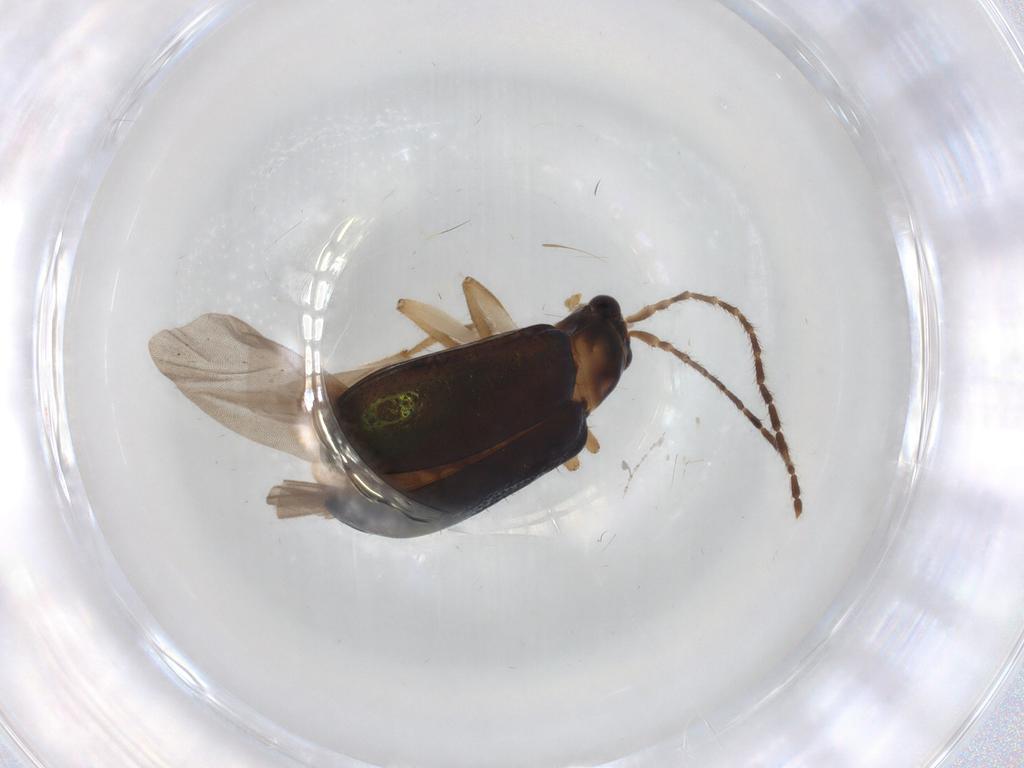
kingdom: Animalia
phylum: Arthropoda
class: Insecta
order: Coleoptera
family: Chrysomelidae
